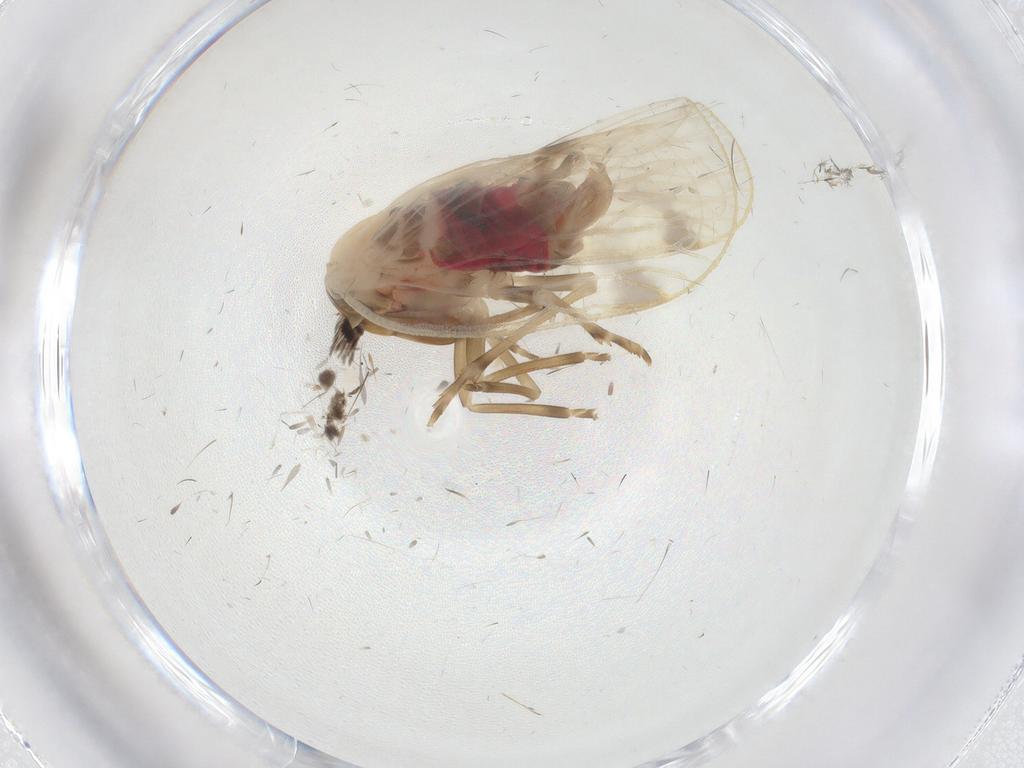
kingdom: Animalia
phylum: Arthropoda
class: Insecta
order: Hemiptera
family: Achilidae
